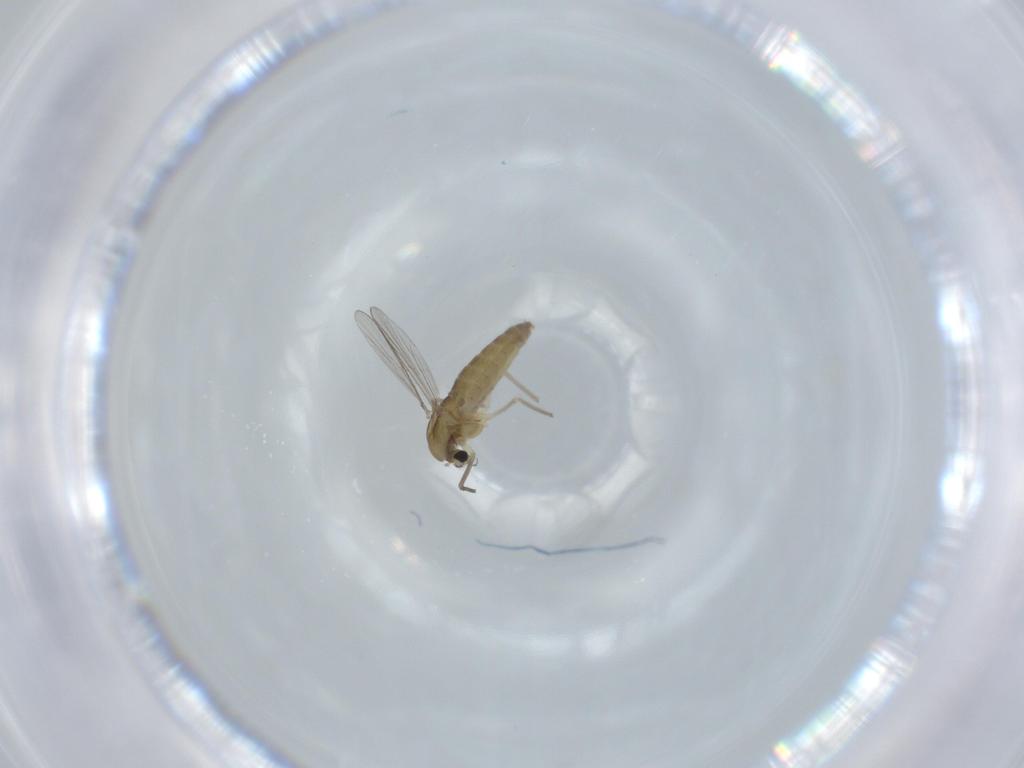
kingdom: Animalia
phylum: Arthropoda
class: Insecta
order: Diptera
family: Chironomidae
